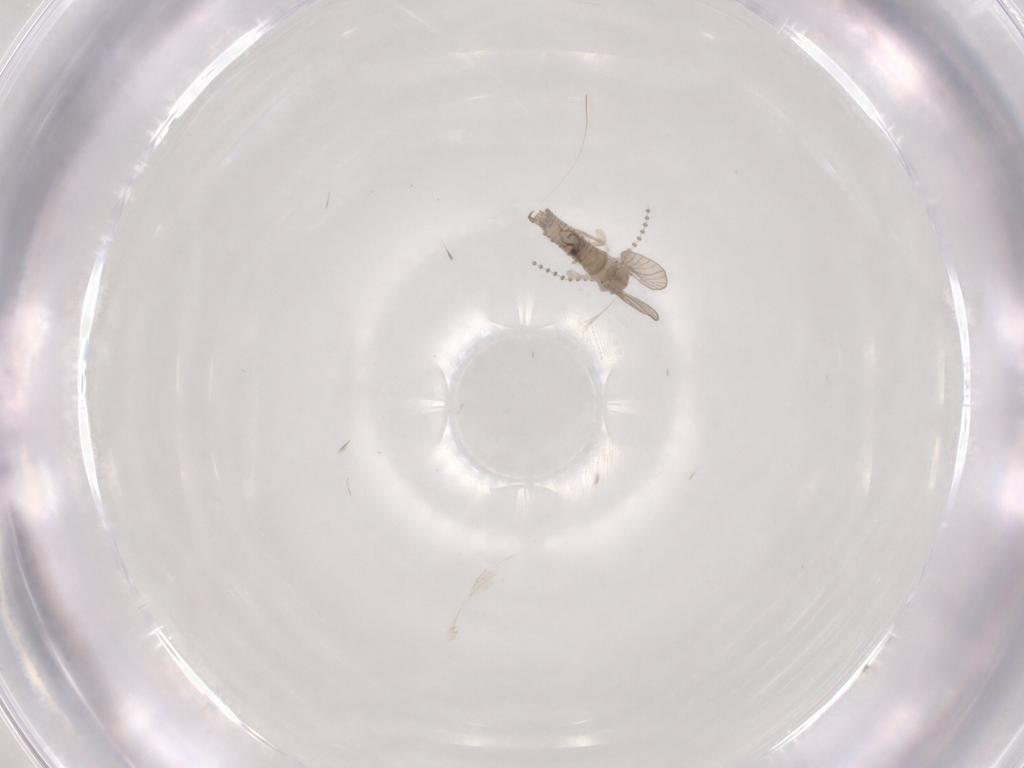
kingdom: Animalia
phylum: Arthropoda
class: Insecta
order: Diptera
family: Psychodidae
